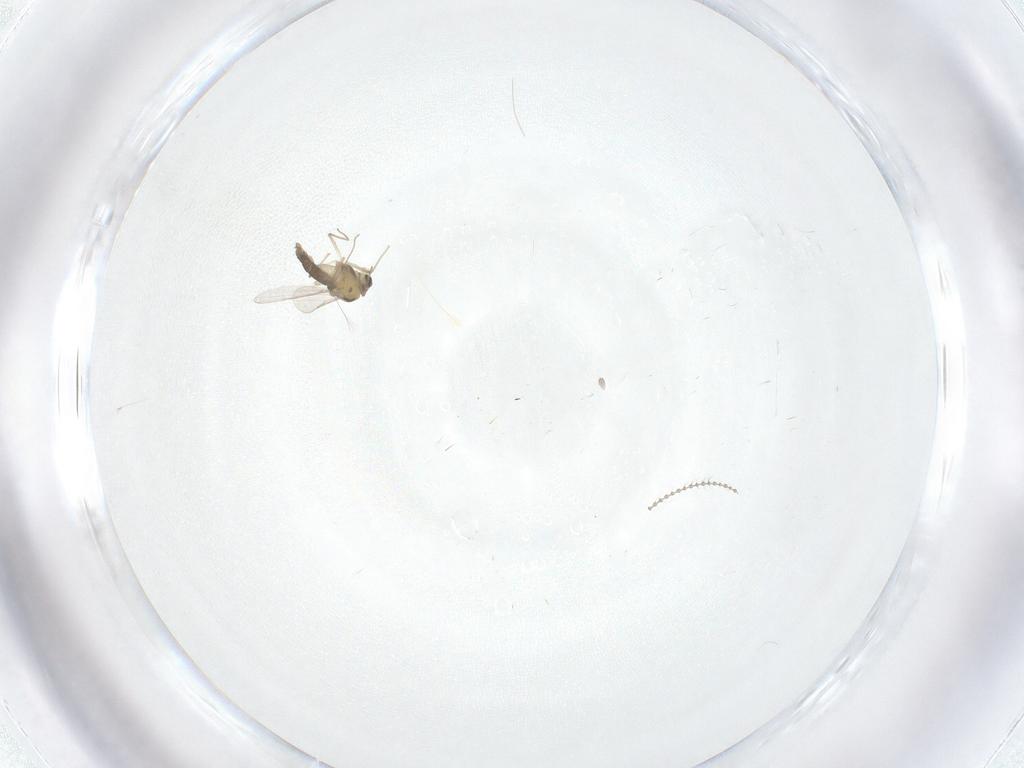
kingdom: Animalia
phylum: Arthropoda
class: Insecta
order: Diptera
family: Chironomidae
